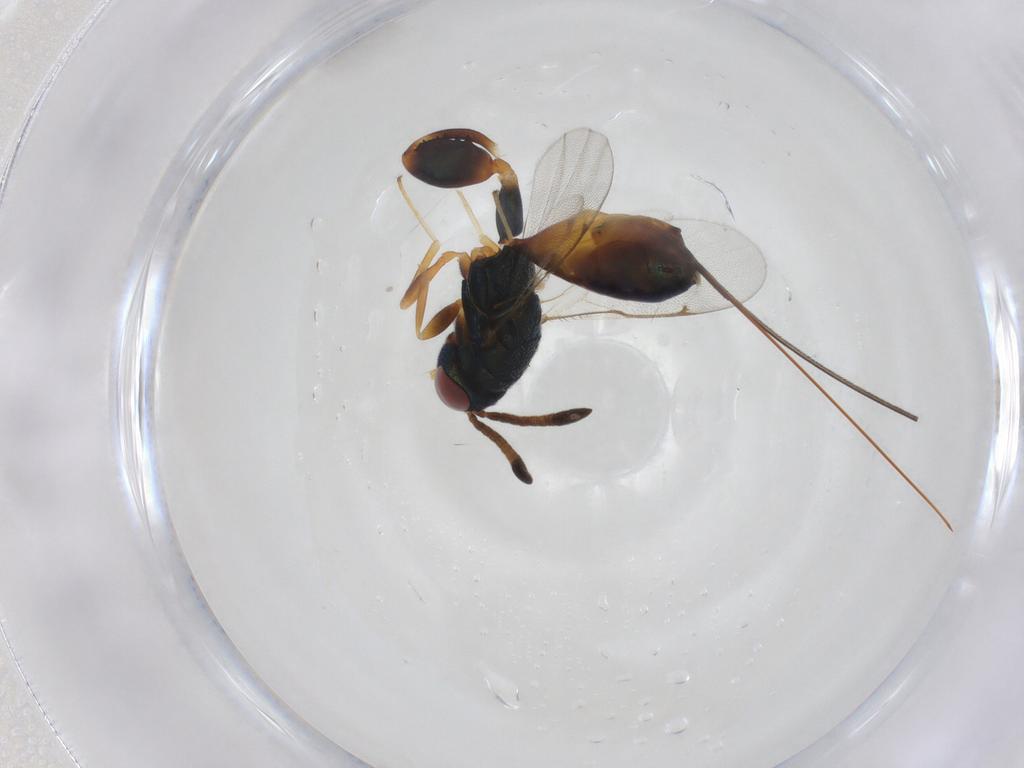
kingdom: Animalia
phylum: Arthropoda
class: Insecta
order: Hymenoptera
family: Torymidae
